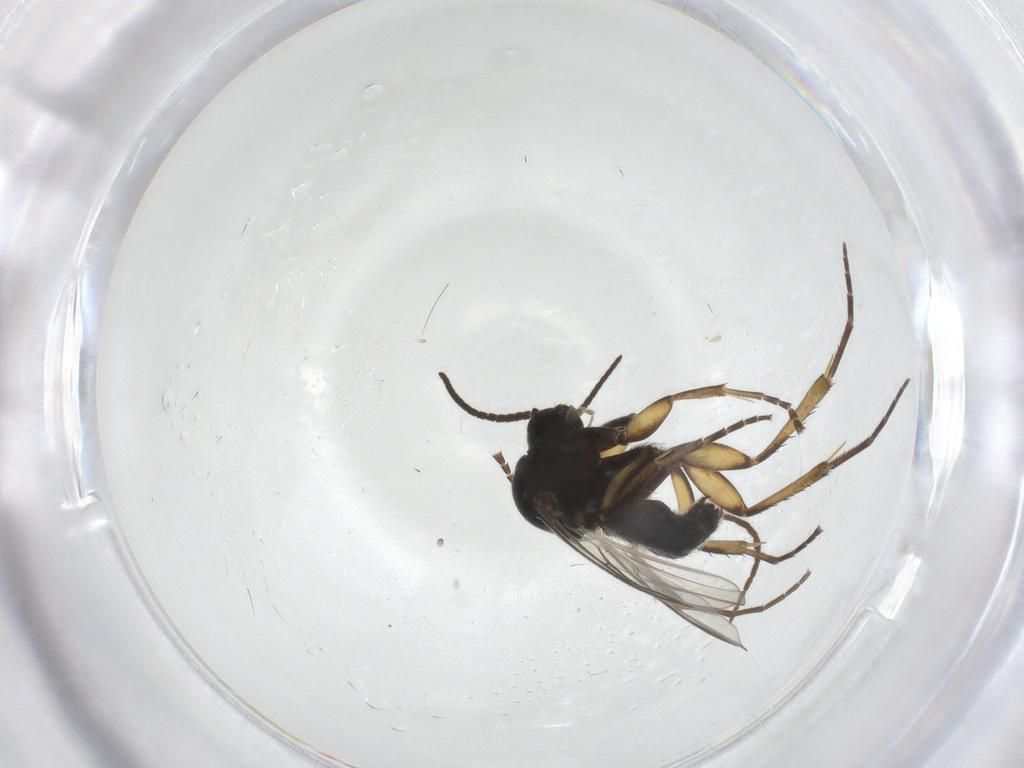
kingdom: Animalia
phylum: Arthropoda
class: Insecta
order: Diptera
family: Mycetophilidae
